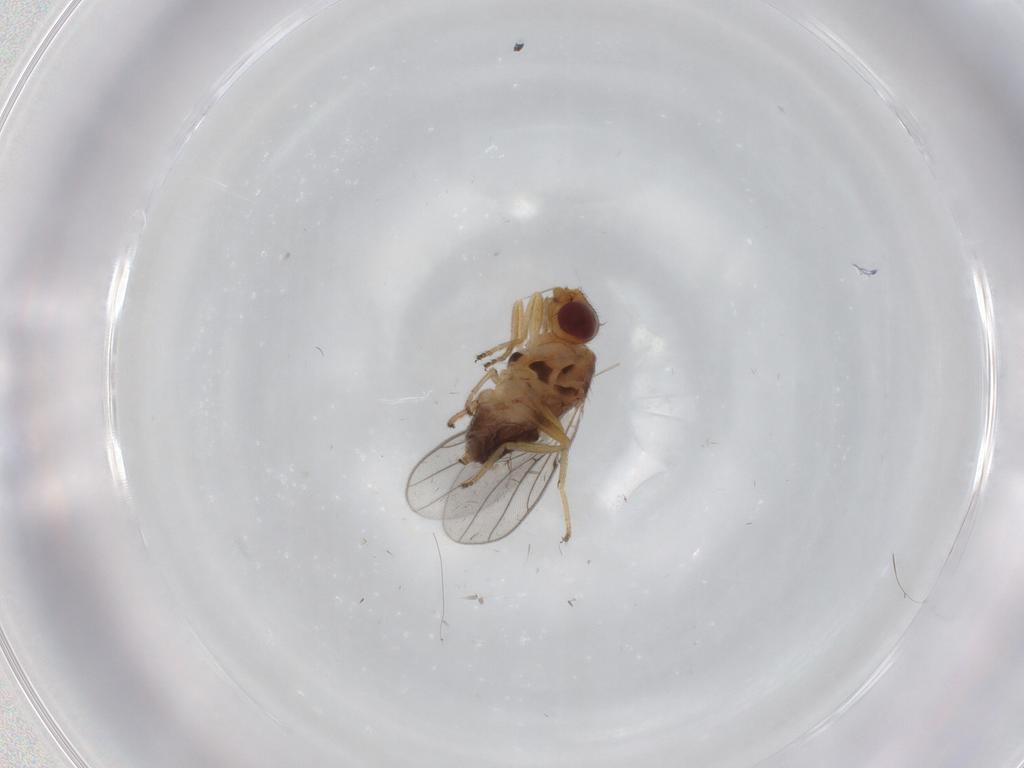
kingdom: Animalia
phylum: Arthropoda
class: Insecta
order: Diptera
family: Chloropidae
